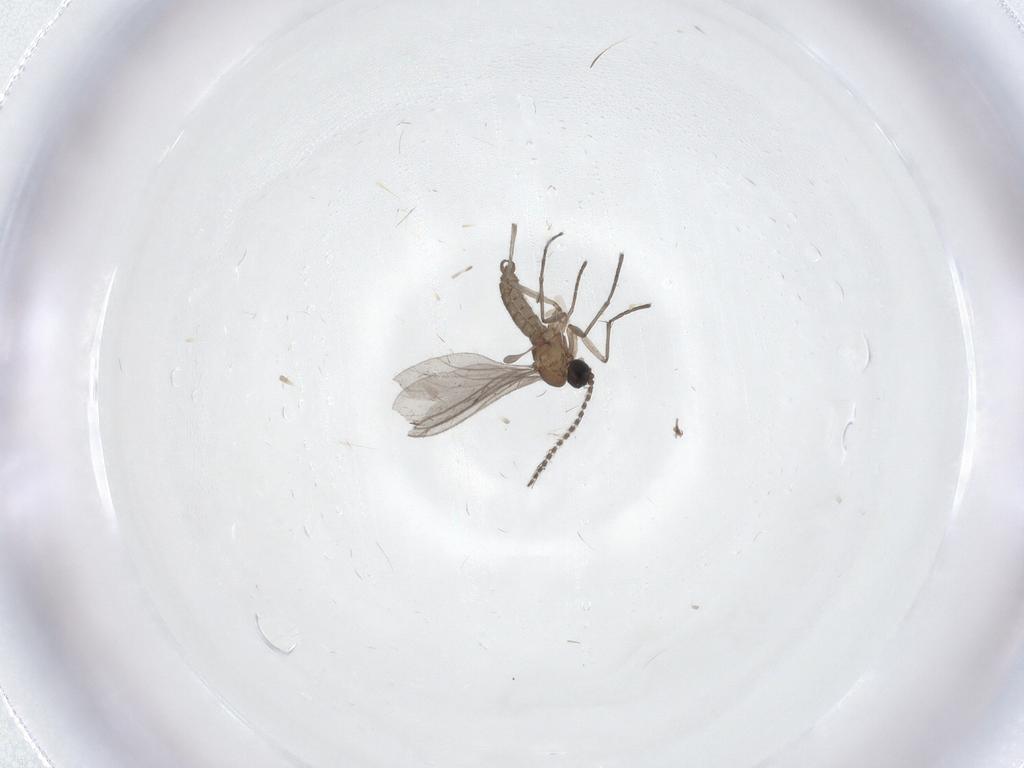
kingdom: Animalia
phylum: Arthropoda
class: Insecta
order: Diptera
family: Sciaridae
